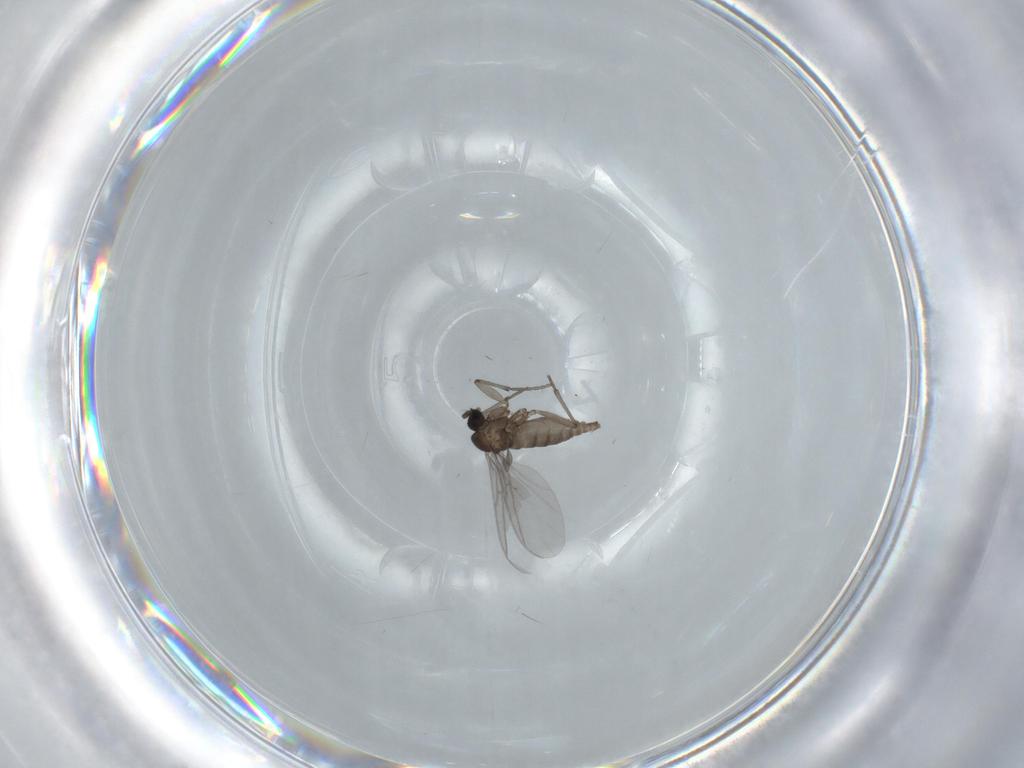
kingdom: Animalia
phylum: Arthropoda
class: Insecta
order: Diptera
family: Sciaridae
